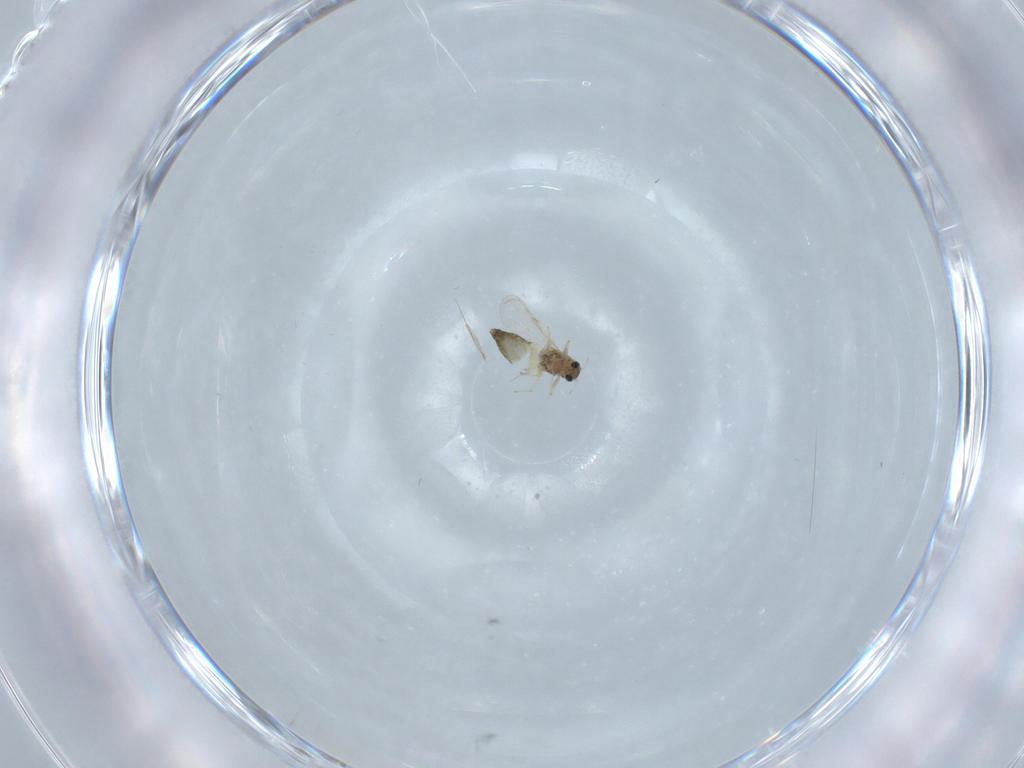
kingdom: Animalia
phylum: Arthropoda
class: Insecta
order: Diptera
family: Chironomidae
